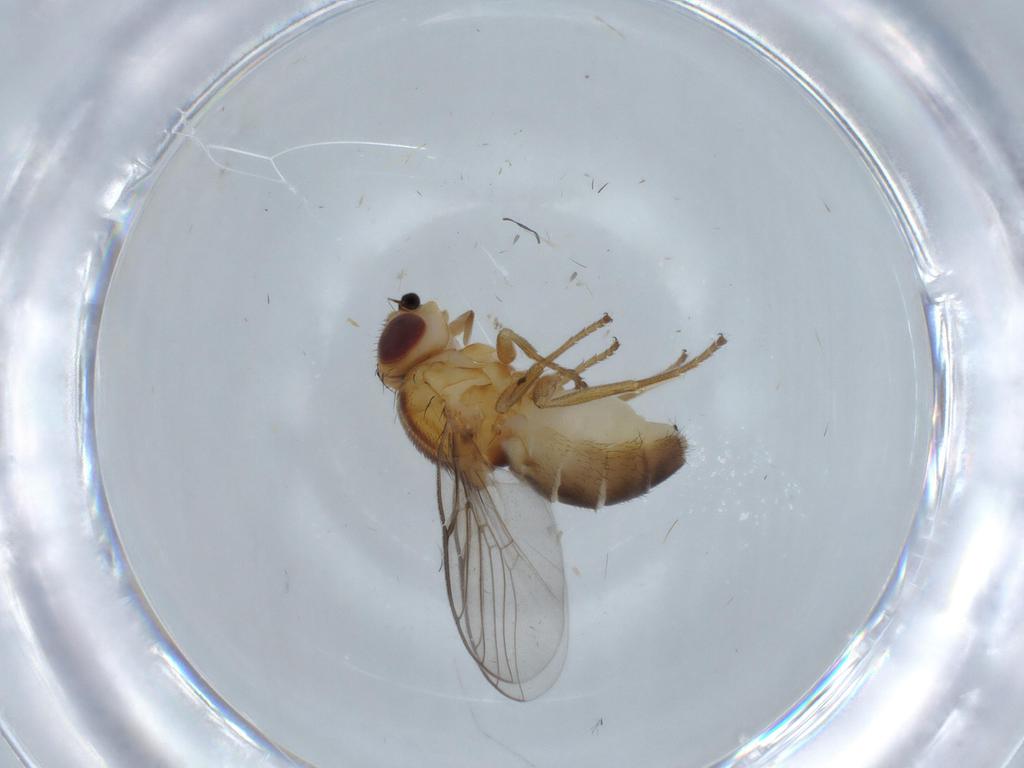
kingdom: Animalia
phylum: Arthropoda
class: Insecta
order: Diptera
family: Chloropidae
